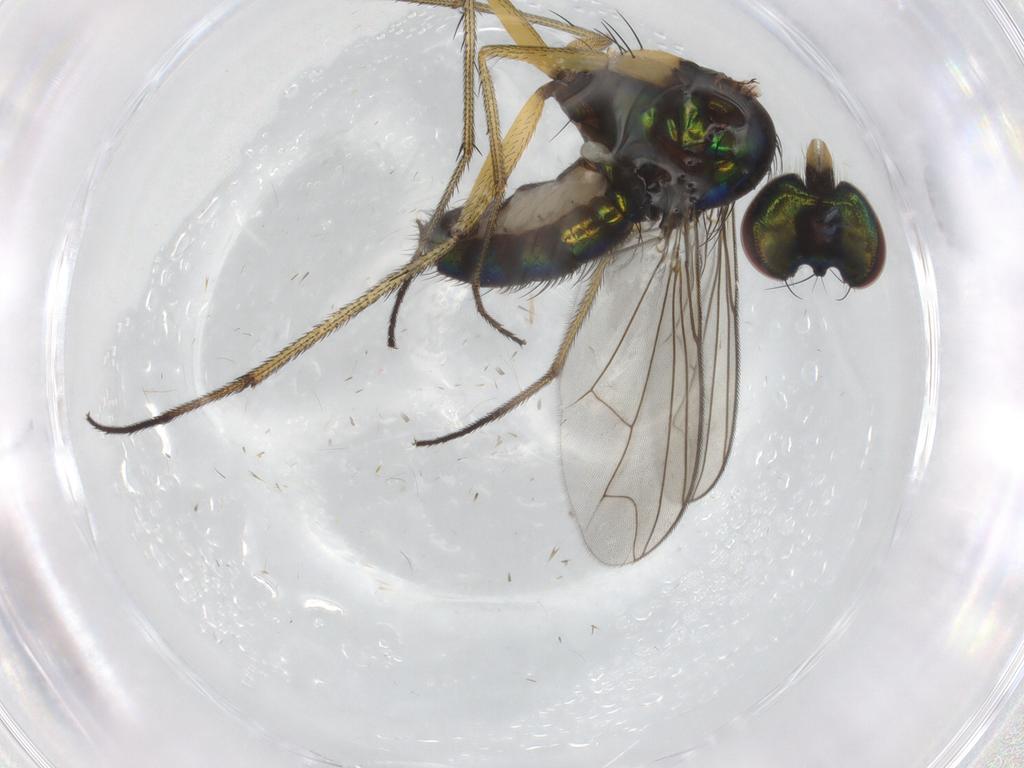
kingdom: Animalia
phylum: Arthropoda
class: Insecta
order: Diptera
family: Dolichopodidae
